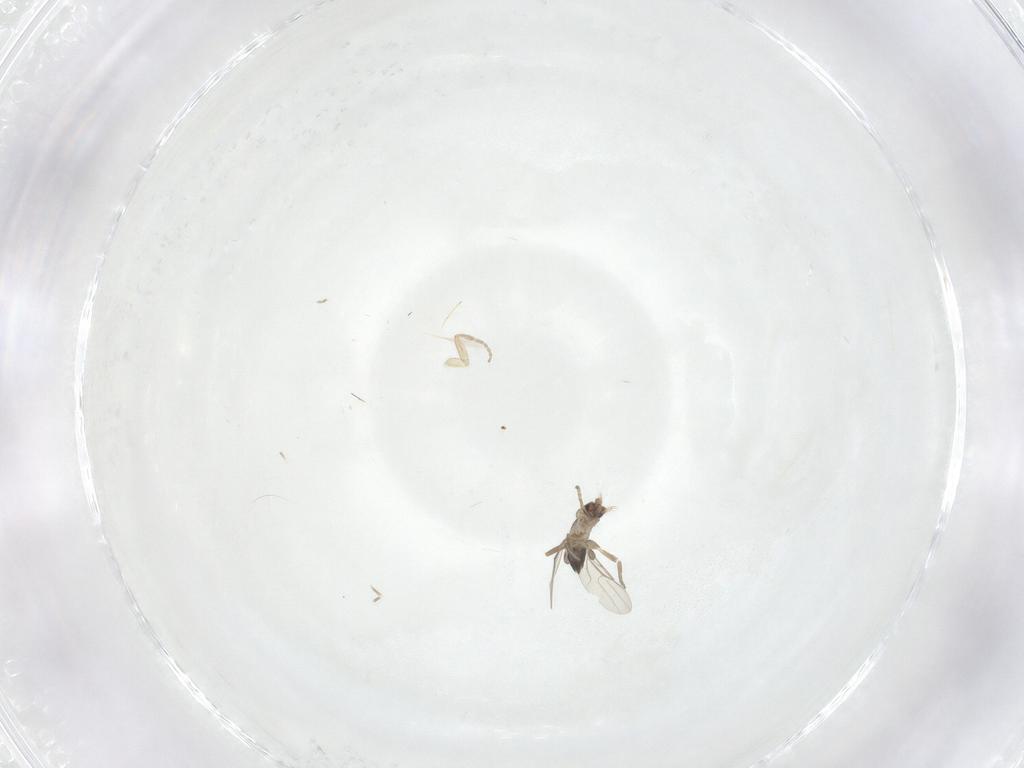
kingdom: Animalia
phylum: Arthropoda
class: Insecta
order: Diptera
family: Phoridae
